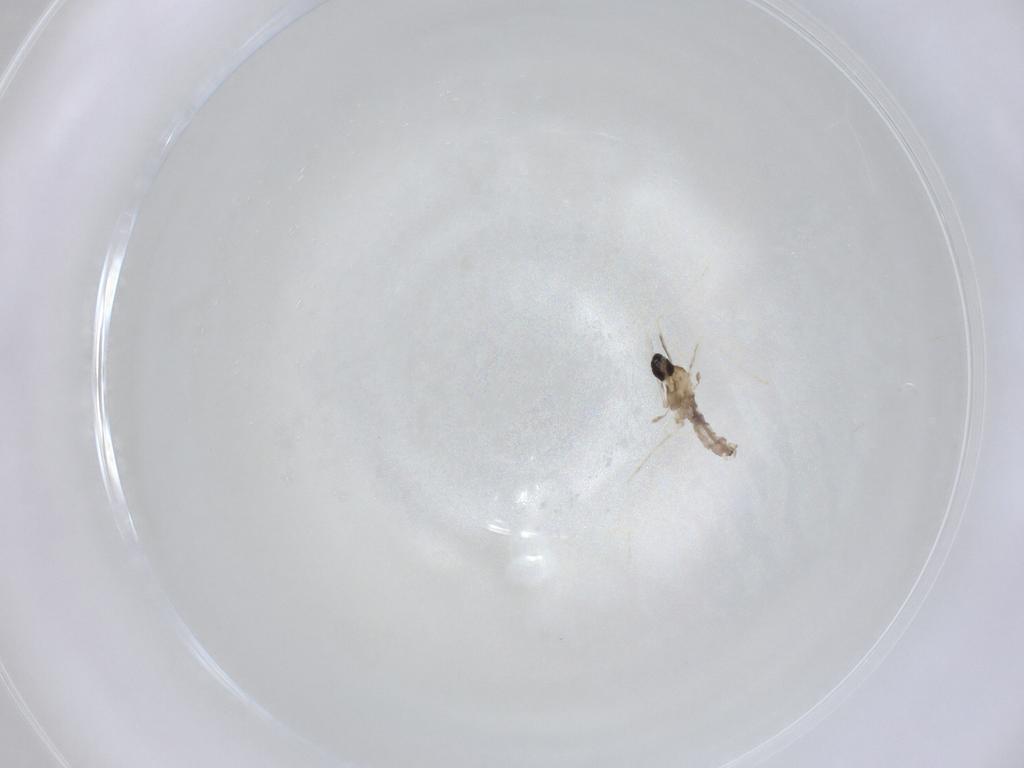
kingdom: Animalia
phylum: Arthropoda
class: Insecta
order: Diptera
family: Cecidomyiidae
